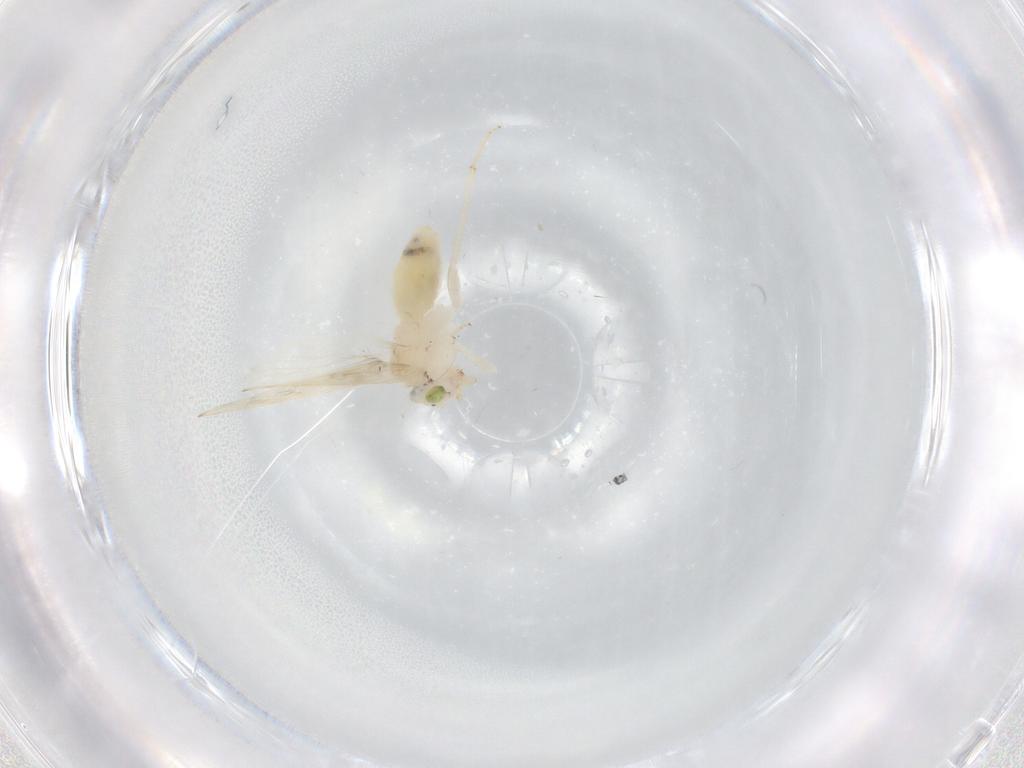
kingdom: Animalia
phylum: Arthropoda
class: Insecta
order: Psocodea
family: Lepidopsocidae
